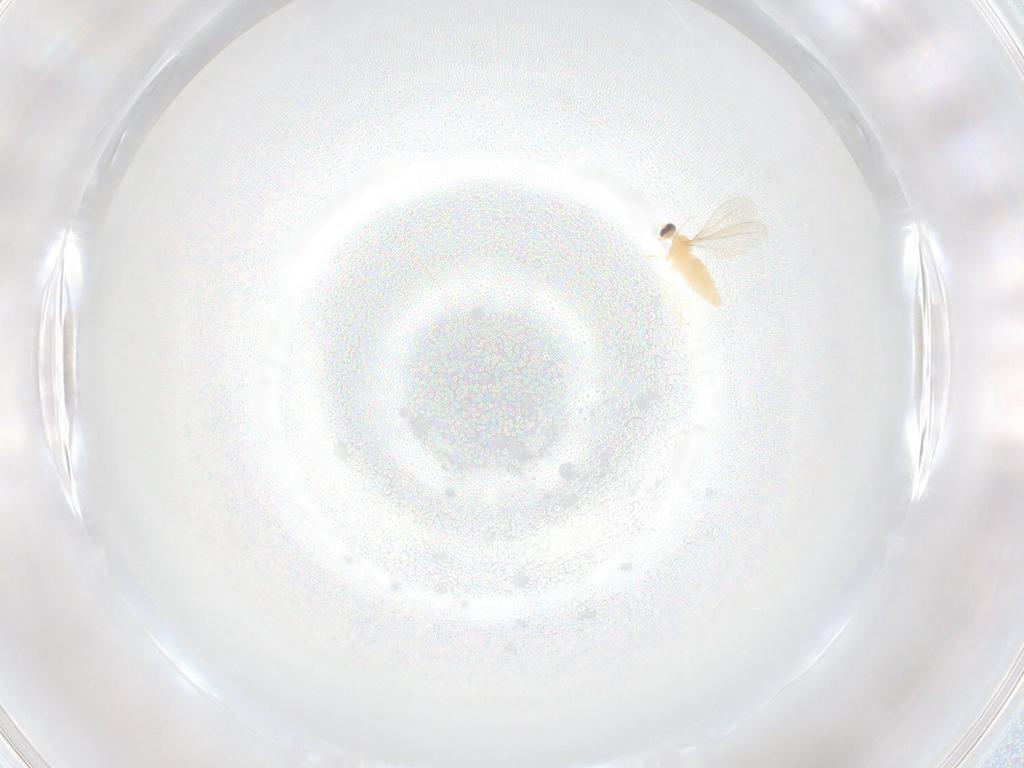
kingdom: Animalia
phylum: Arthropoda
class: Insecta
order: Diptera
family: Cecidomyiidae
